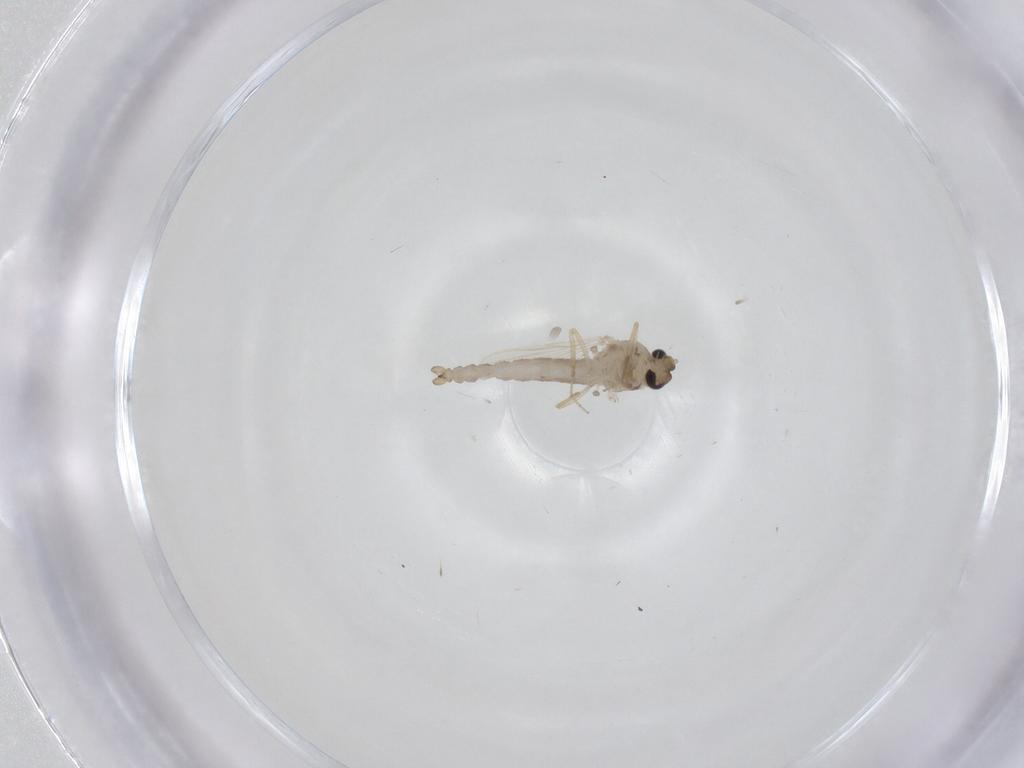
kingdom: Animalia
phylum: Arthropoda
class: Insecta
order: Diptera
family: Ceratopogonidae
